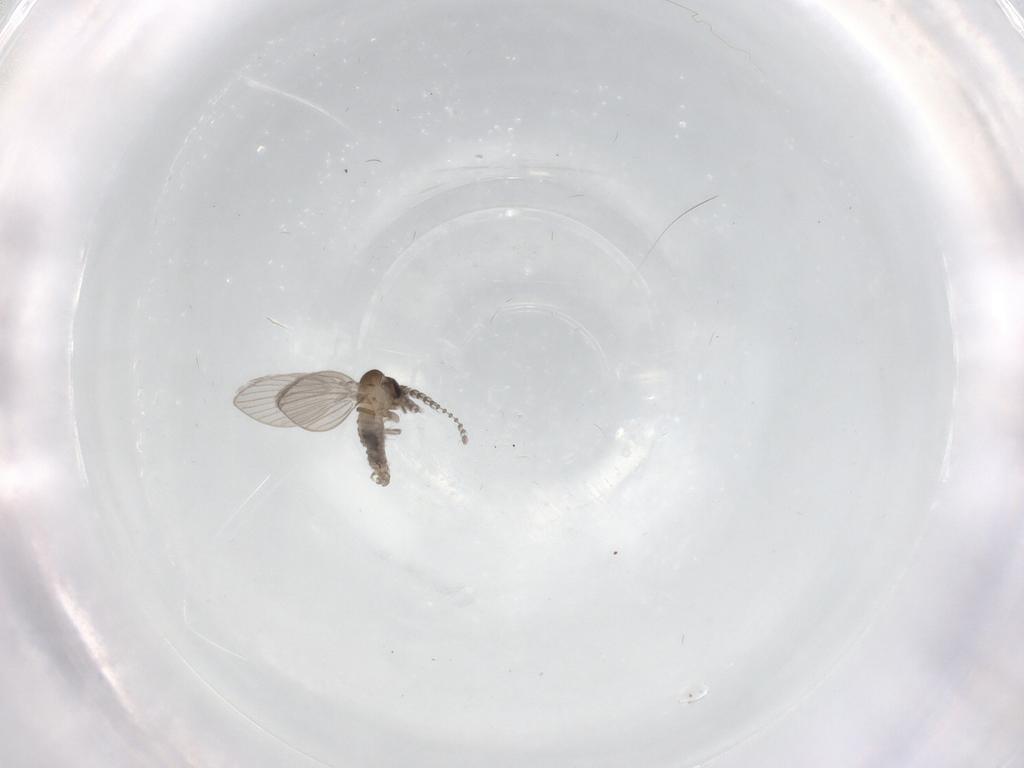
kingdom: Animalia
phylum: Arthropoda
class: Insecta
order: Diptera
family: Psychodidae
